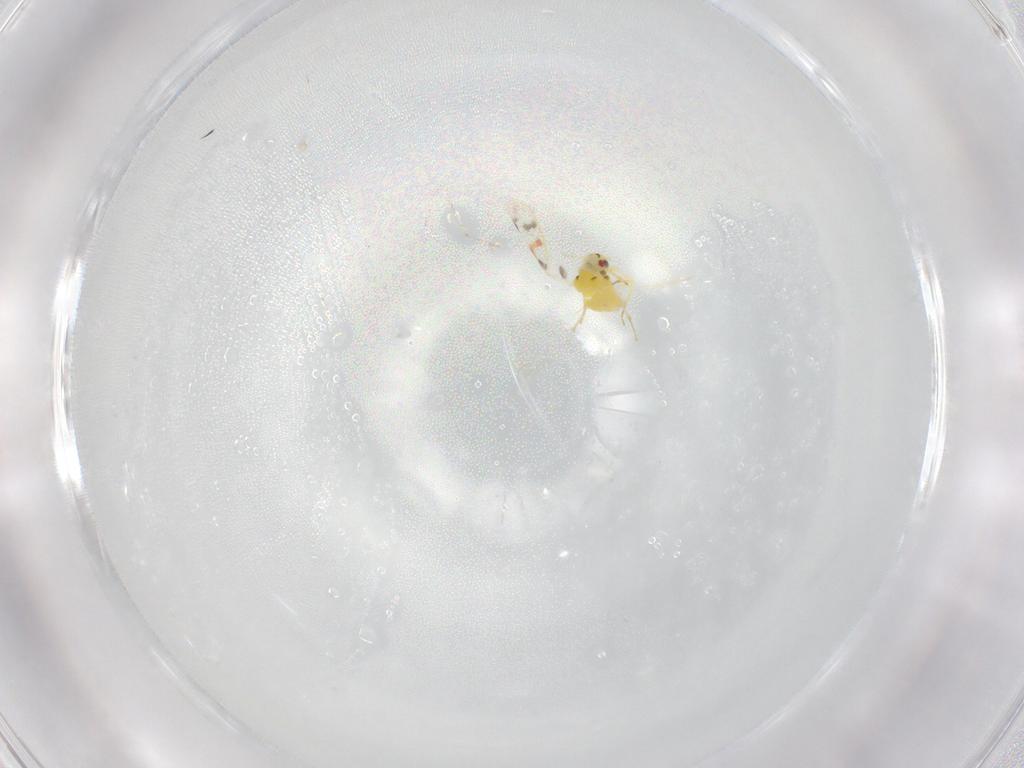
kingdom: Animalia
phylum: Arthropoda
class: Insecta
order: Hemiptera
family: Aleyrodidae
